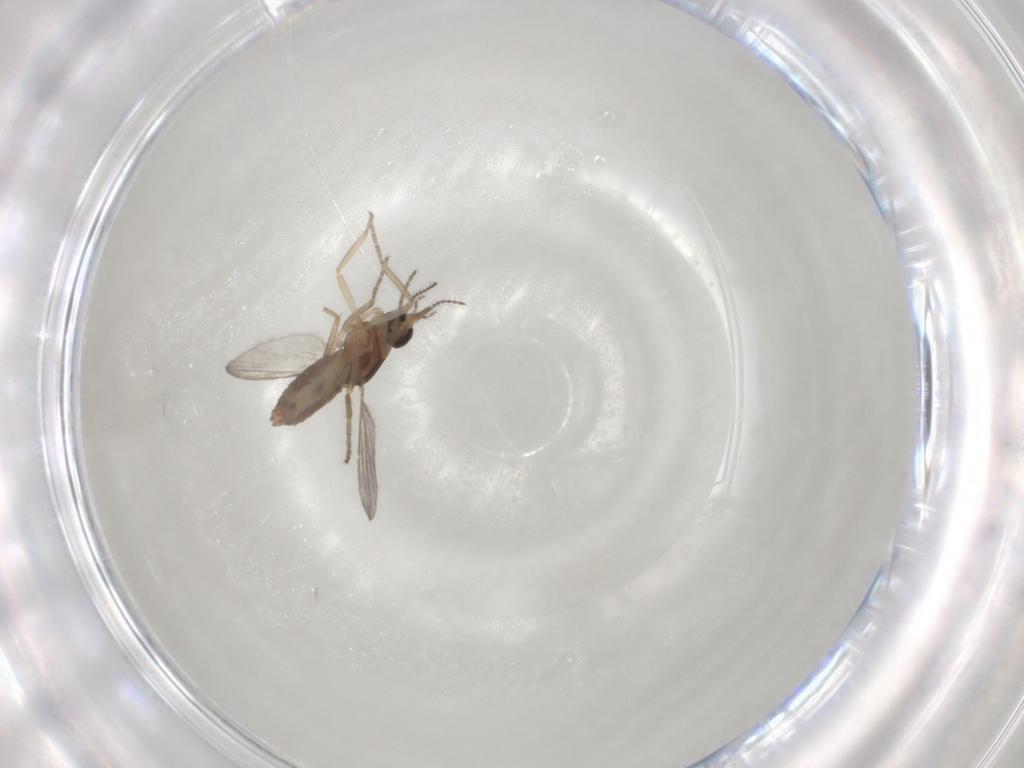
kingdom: Animalia
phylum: Arthropoda
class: Insecta
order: Diptera
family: Ceratopogonidae
